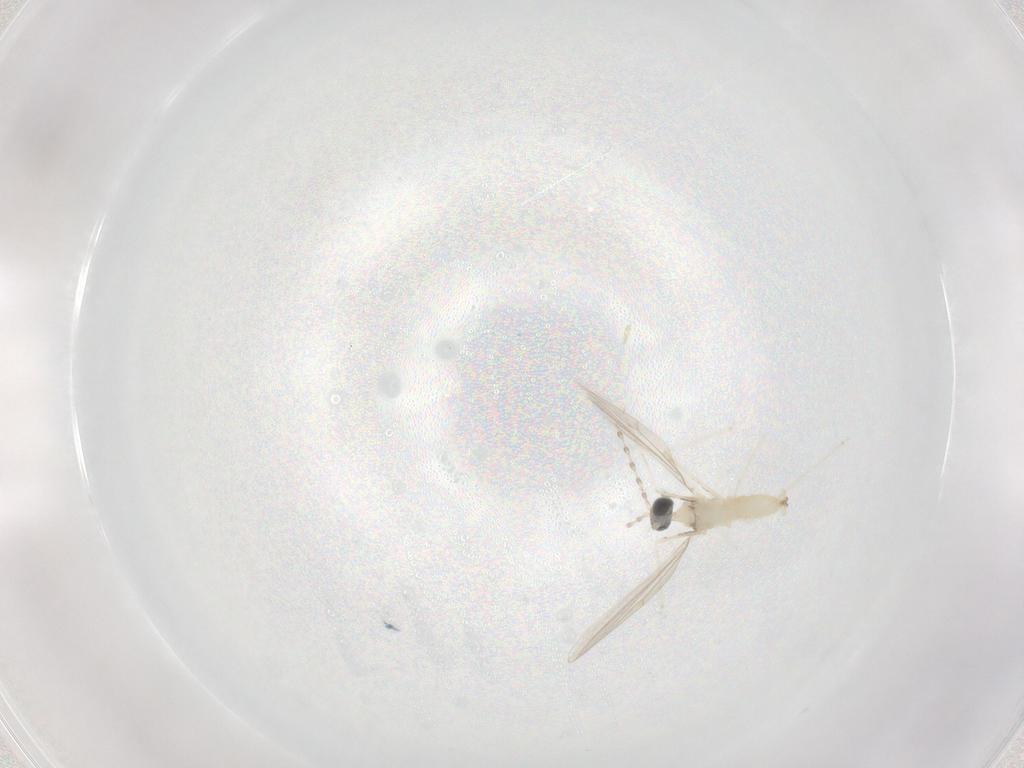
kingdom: Animalia
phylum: Arthropoda
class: Insecta
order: Diptera
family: Cecidomyiidae
